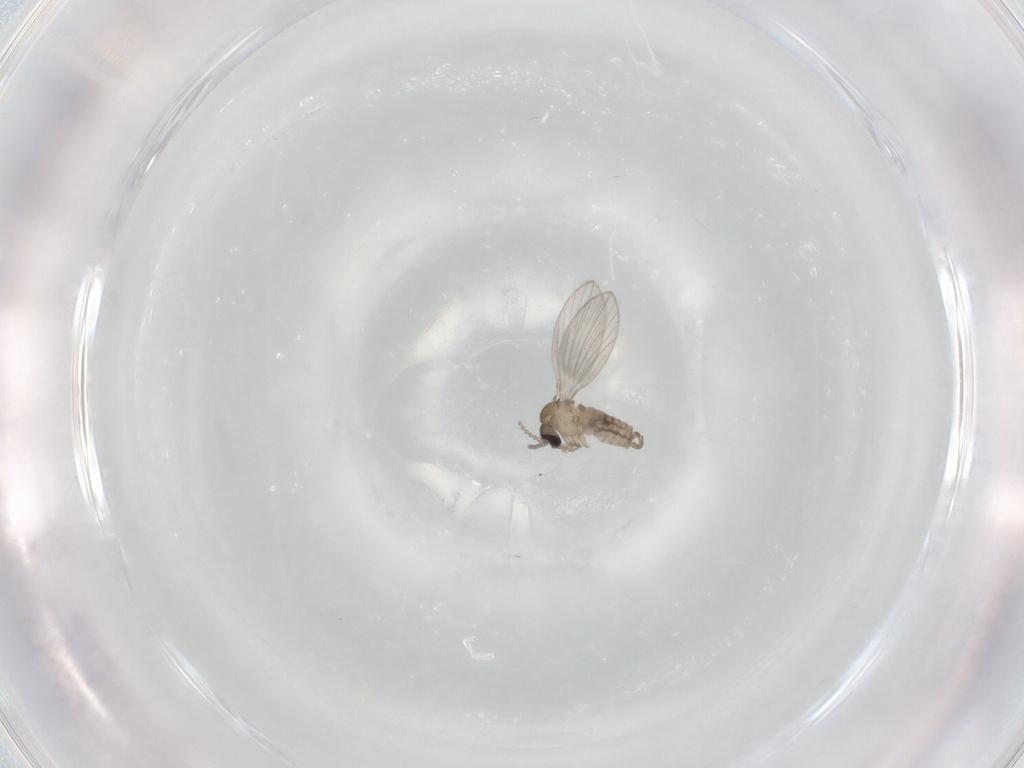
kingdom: Animalia
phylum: Arthropoda
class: Insecta
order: Diptera
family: Psychodidae
